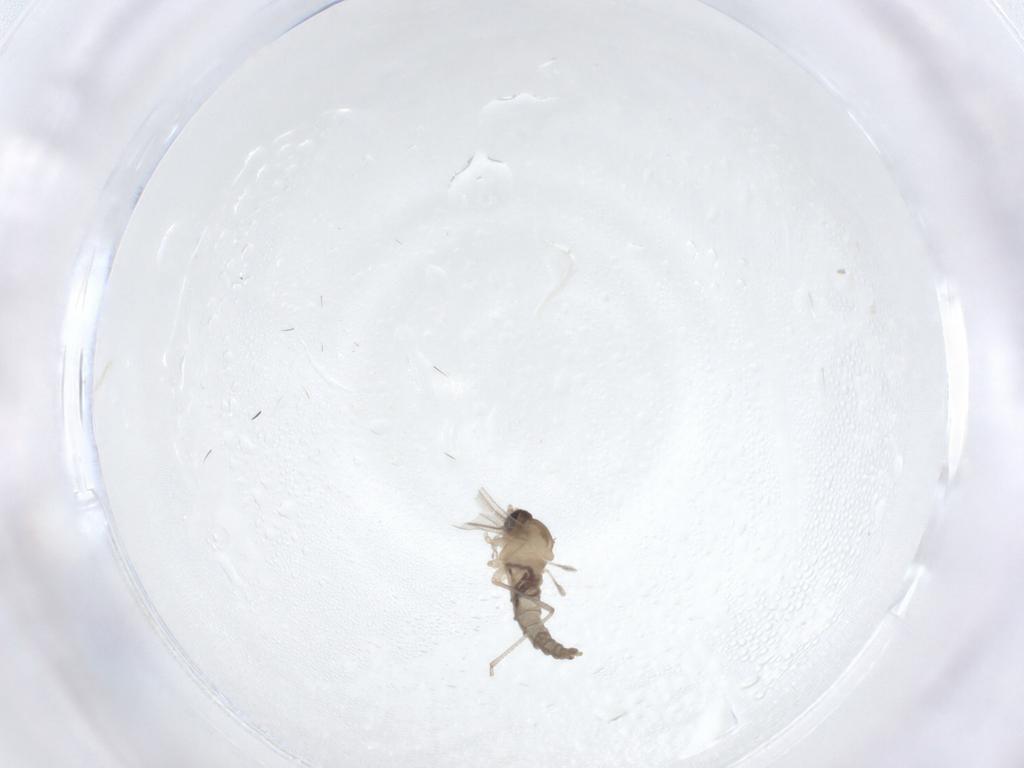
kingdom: Animalia
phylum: Arthropoda
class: Insecta
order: Diptera
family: Cecidomyiidae
